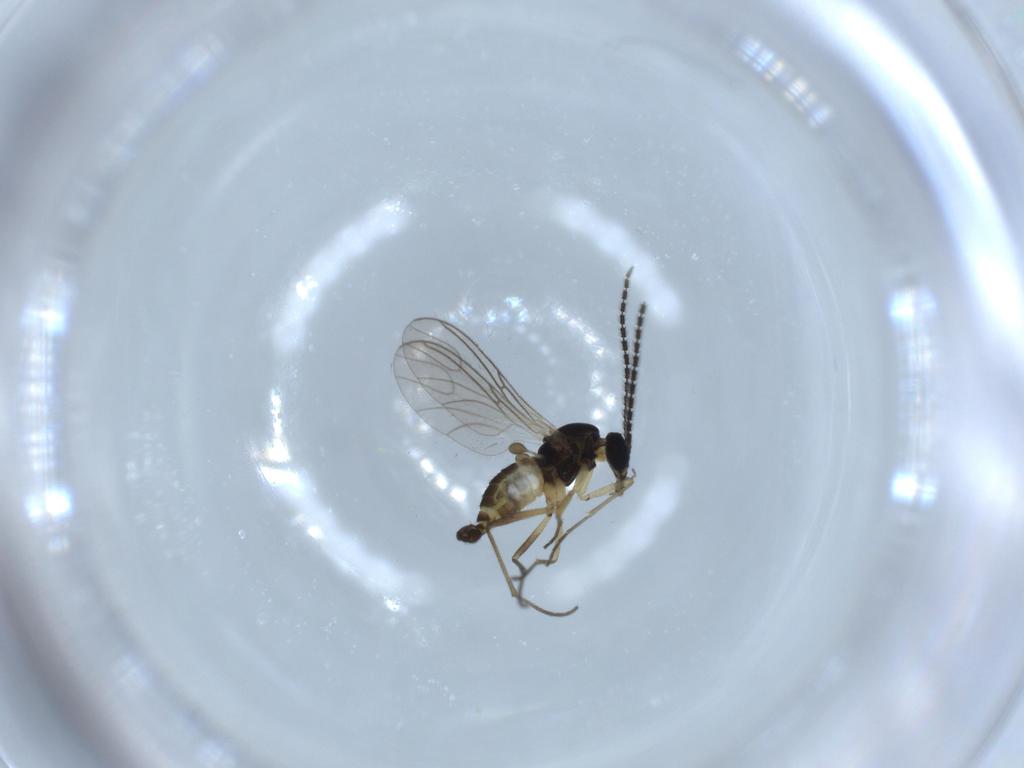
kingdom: Animalia
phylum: Arthropoda
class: Insecta
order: Diptera
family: Sciaridae
